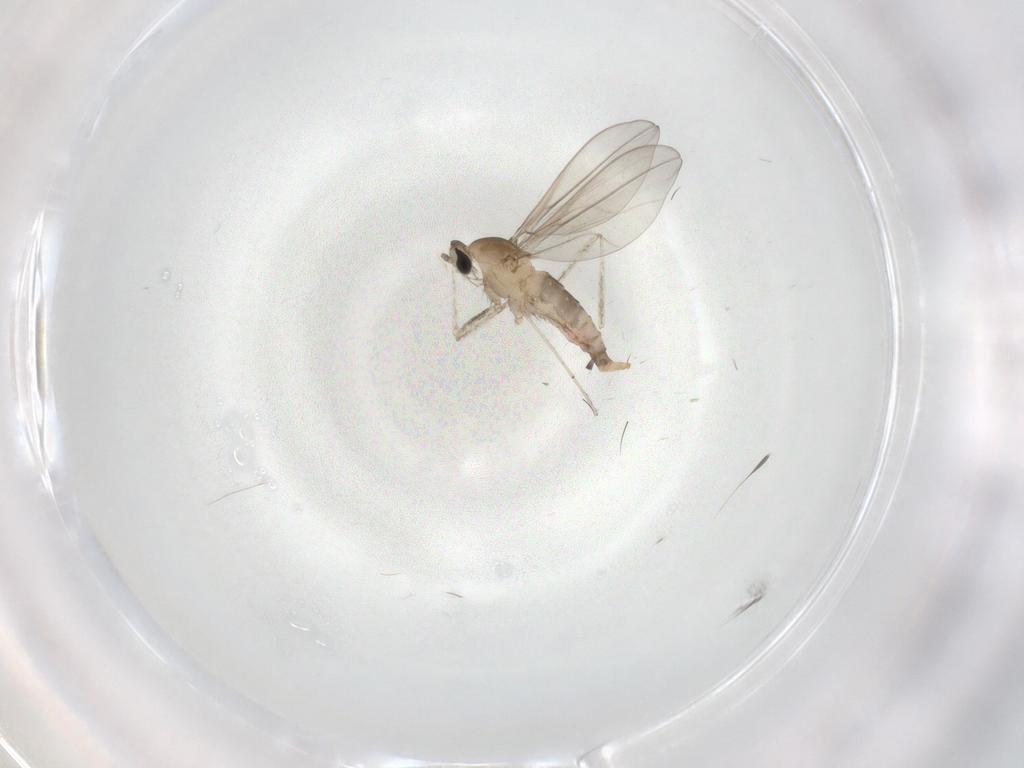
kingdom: Animalia
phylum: Arthropoda
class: Insecta
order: Diptera
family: Cecidomyiidae
